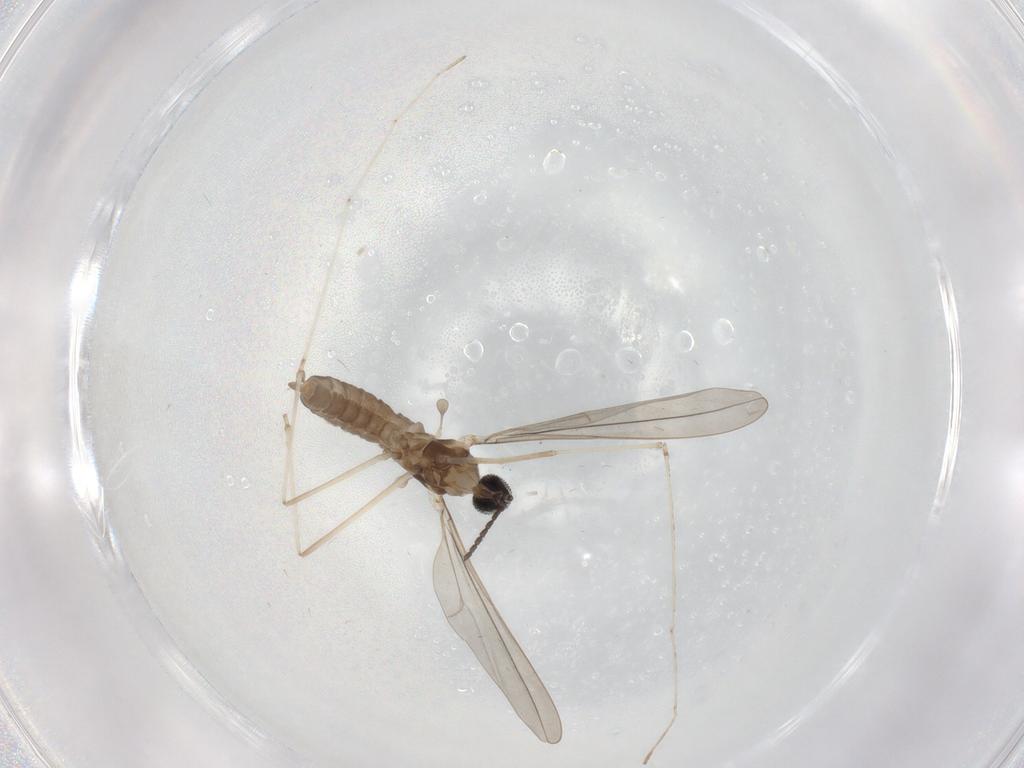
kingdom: Animalia
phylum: Arthropoda
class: Insecta
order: Diptera
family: Cecidomyiidae
